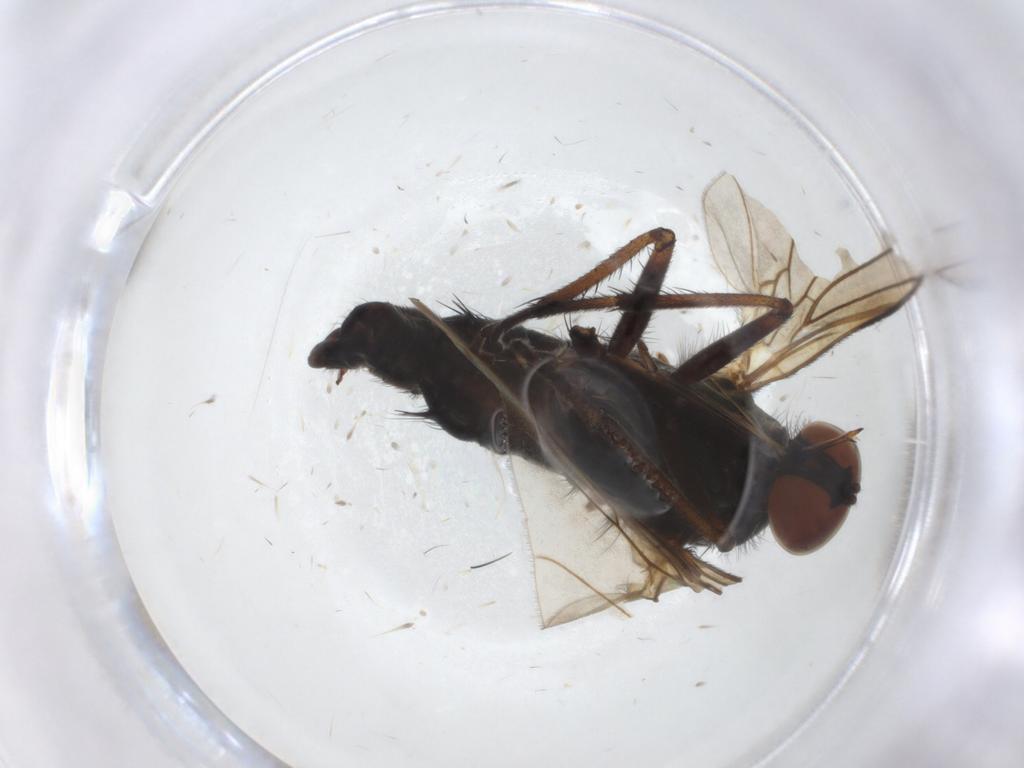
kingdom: Animalia
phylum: Arthropoda
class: Insecta
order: Diptera
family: Empididae
